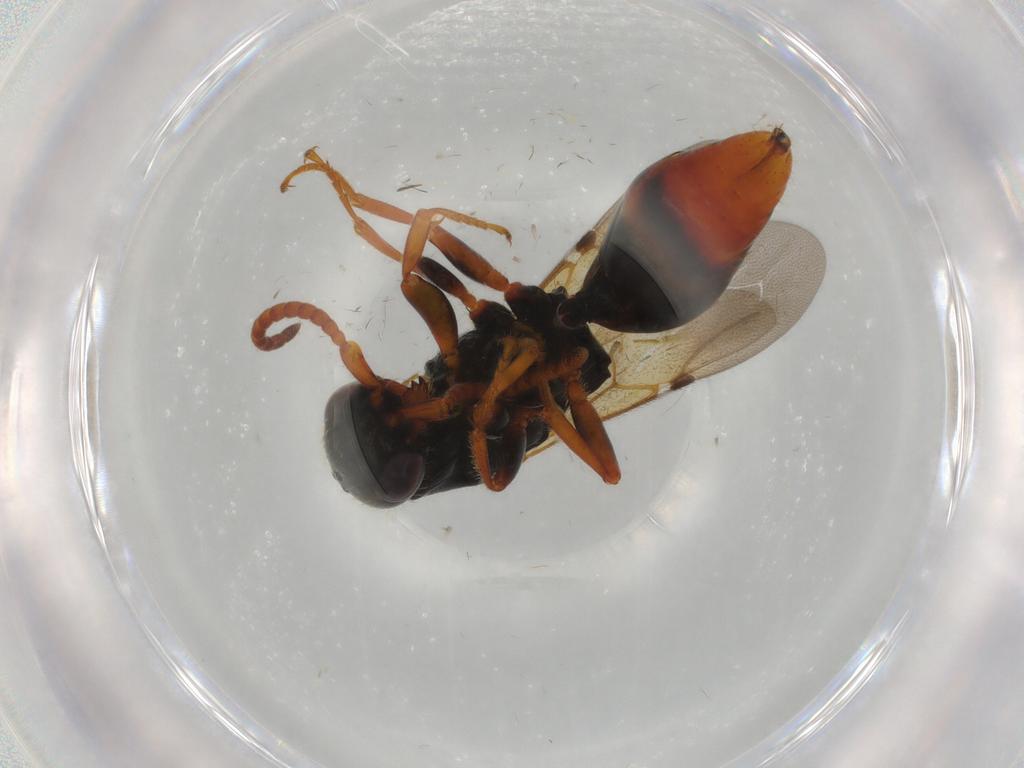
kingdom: Animalia
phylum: Arthropoda
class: Insecta
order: Hymenoptera
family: Bethylidae
